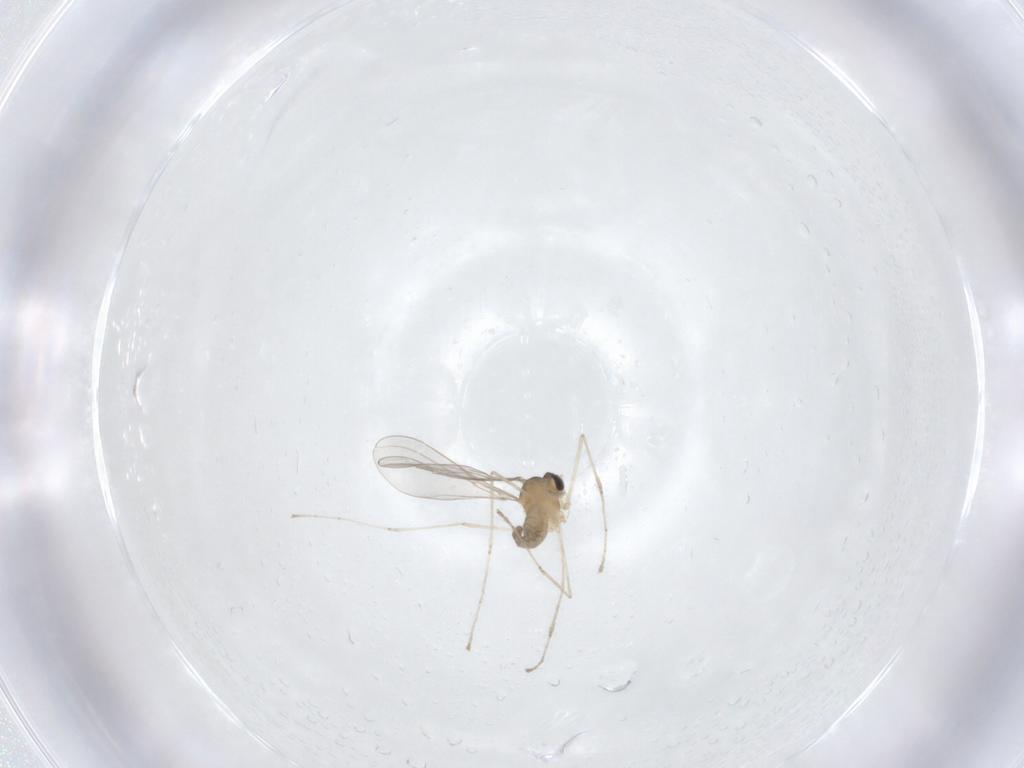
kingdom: Animalia
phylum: Arthropoda
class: Insecta
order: Diptera
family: Cecidomyiidae
